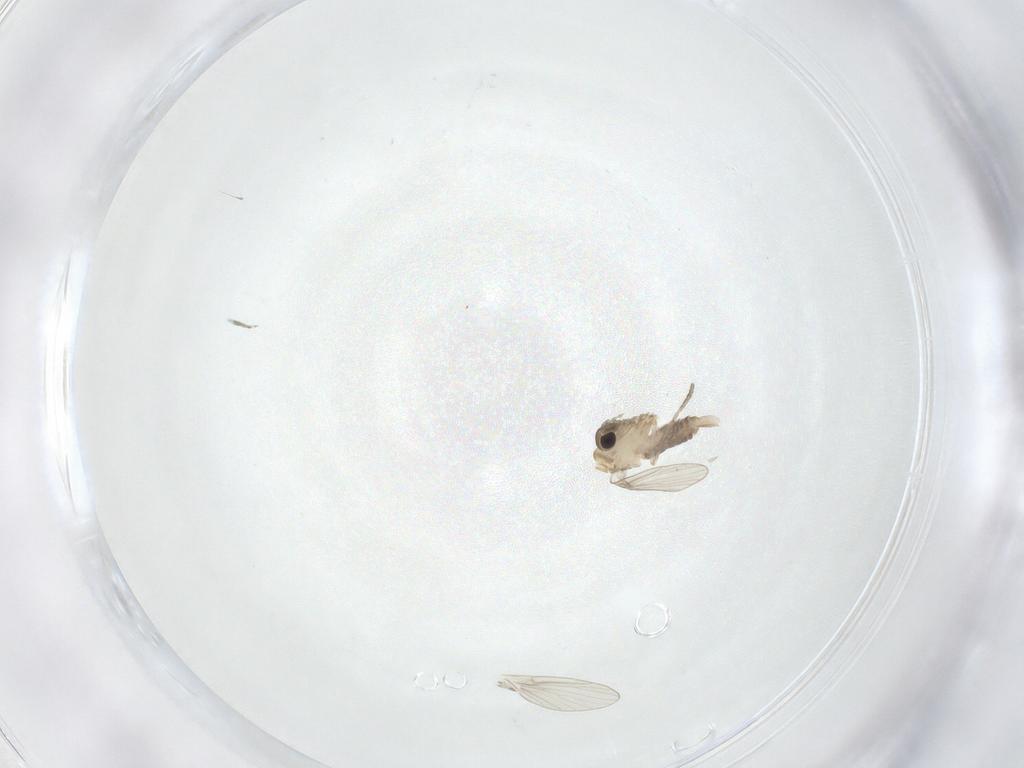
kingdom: Animalia
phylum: Arthropoda
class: Insecta
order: Diptera
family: Psychodidae
